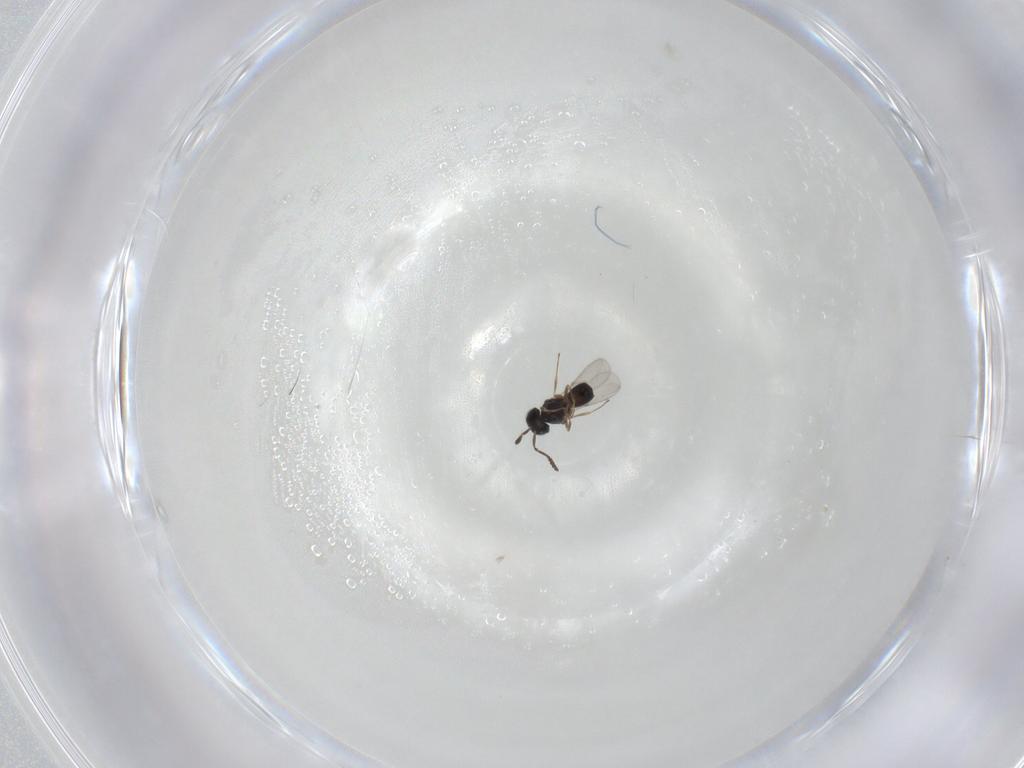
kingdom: Animalia
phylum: Arthropoda
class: Insecta
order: Hymenoptera
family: Scelionidae
